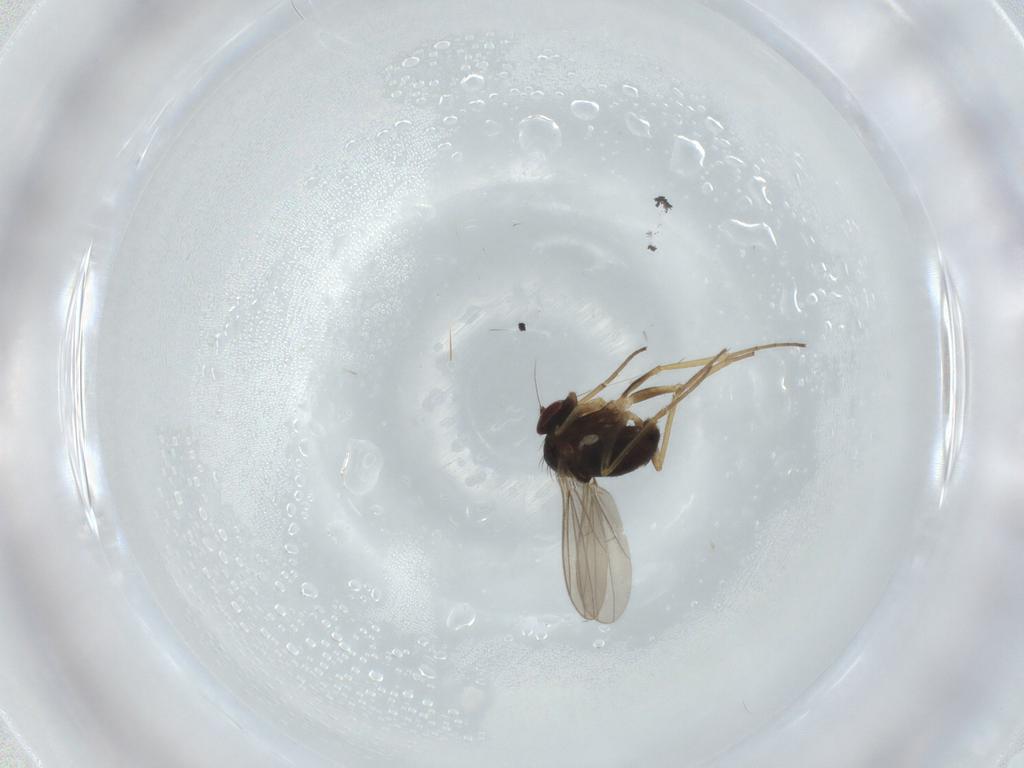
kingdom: Animalia
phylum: Arthropoda
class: Insecta
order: Diptera
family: Dolichopodidae
